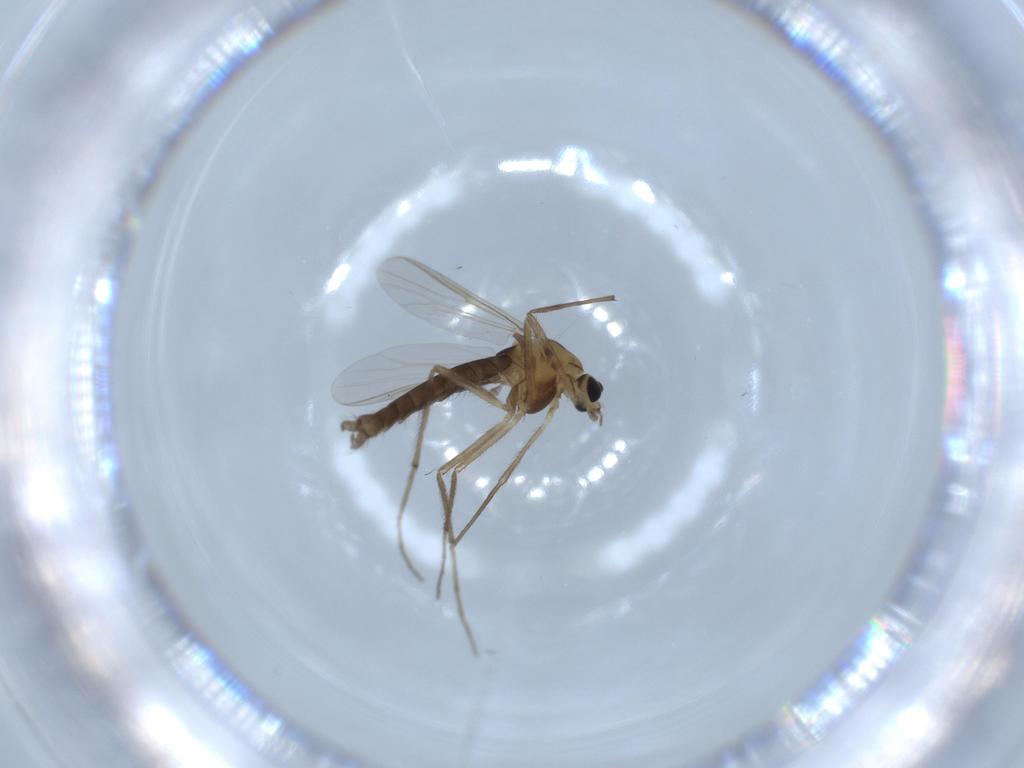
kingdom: Animalia
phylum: Arthropoda
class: Insecta
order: Diptera
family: Chironomidae
